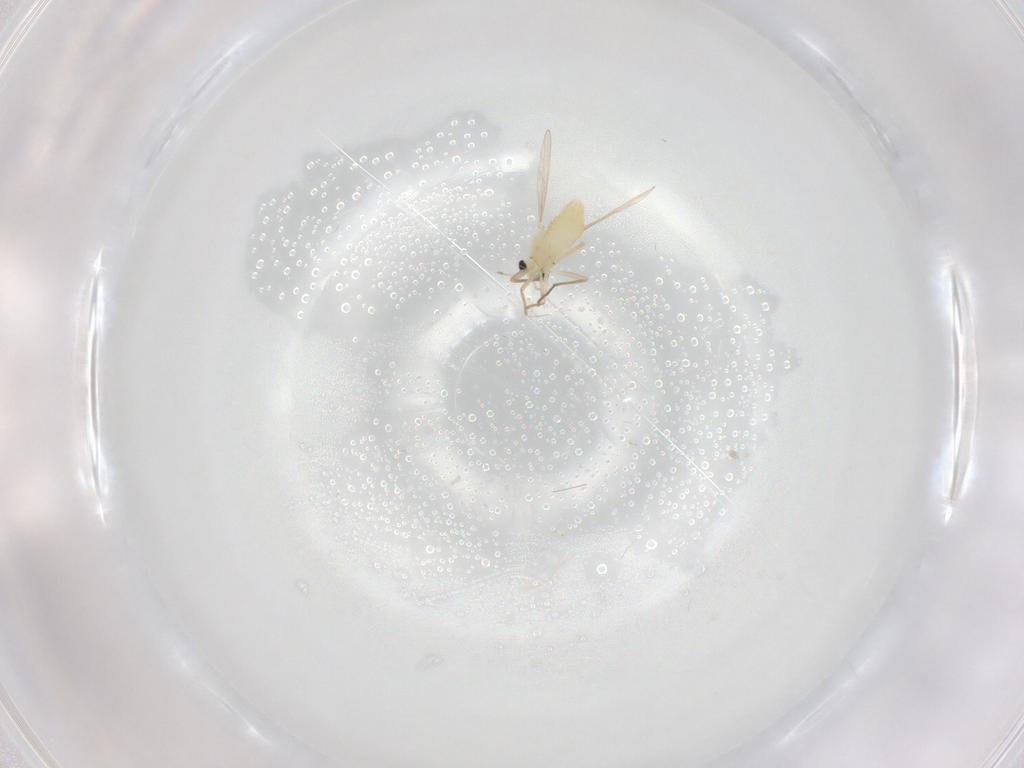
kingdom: Animalia
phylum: Arthropoda
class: Insecta
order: Diptera
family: Chironomidae
